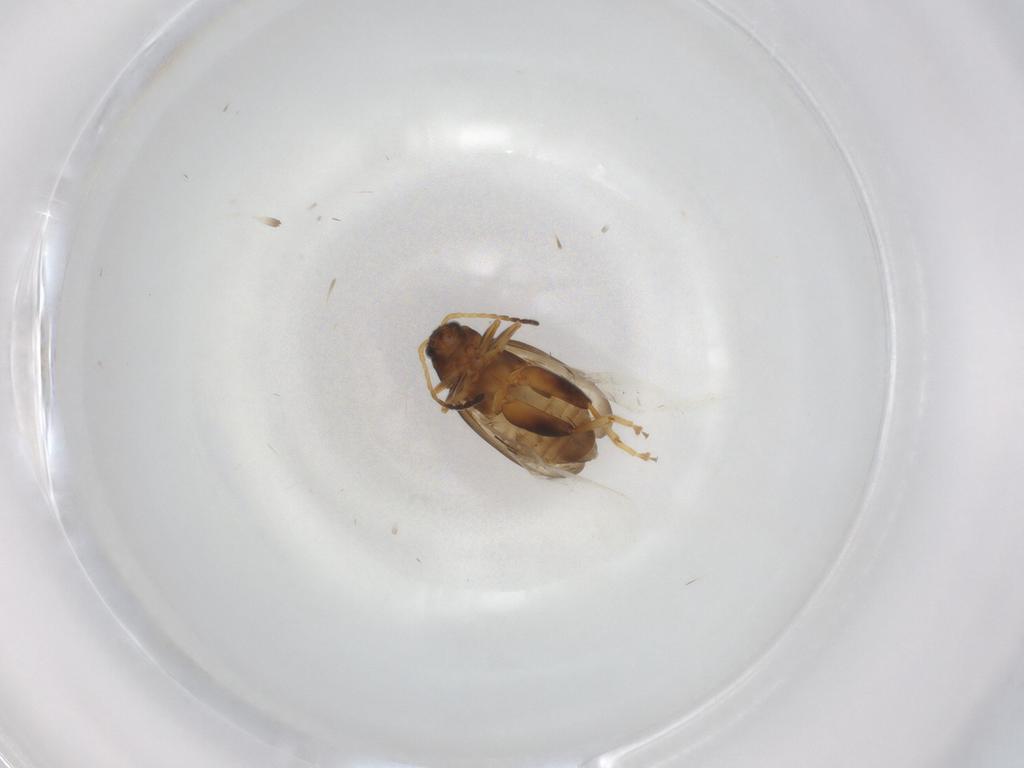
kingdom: Animalia
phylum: Arthropoda
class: Insecta
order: Coleoptera
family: Chrysomelidae
